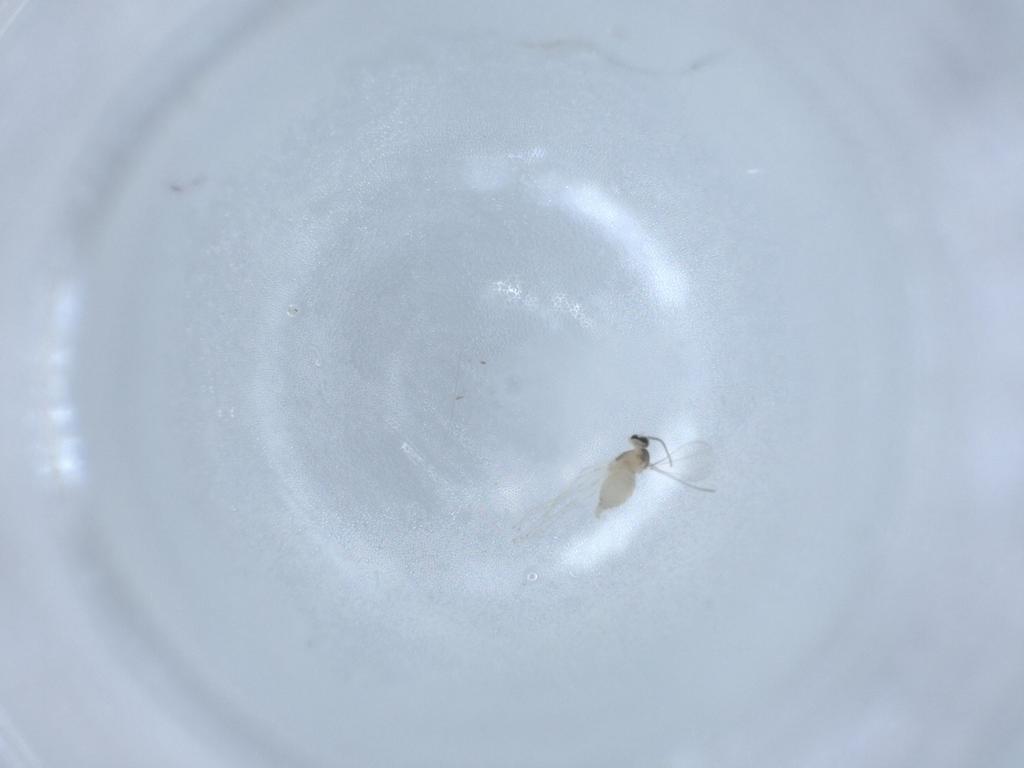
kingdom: Animalia
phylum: Arthropoda
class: Insecta
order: Diptera
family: Cecidomyiidae
